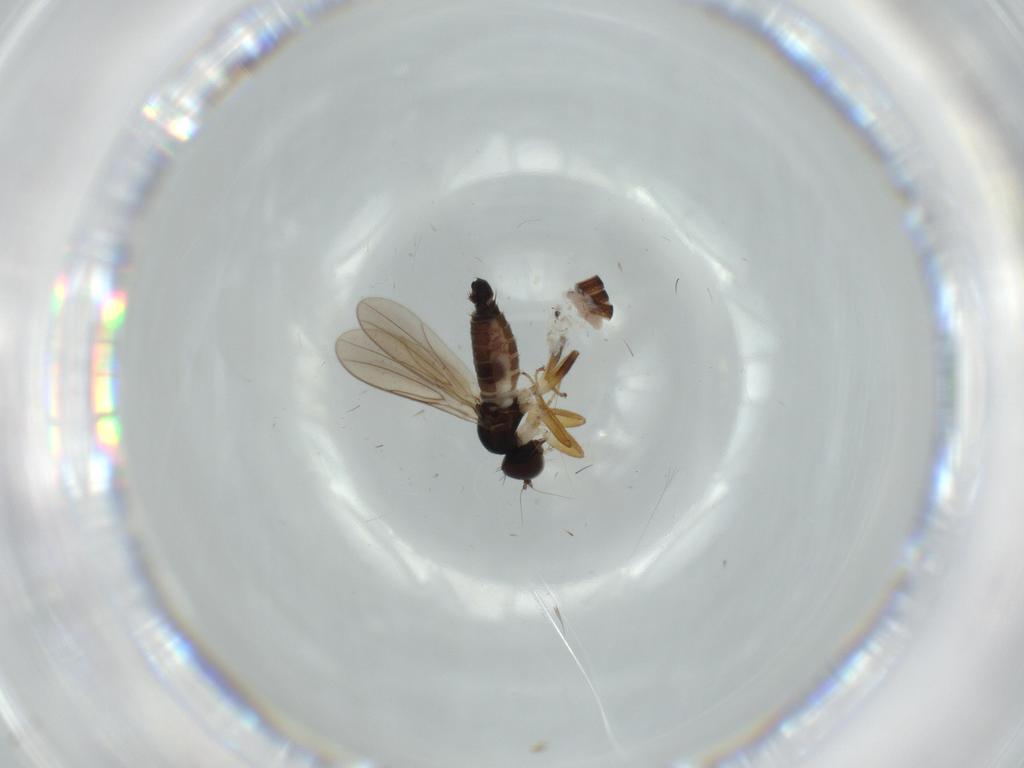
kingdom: Animalia
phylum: Arthropoda
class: Insecta
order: Diptera
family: Hybotidae
